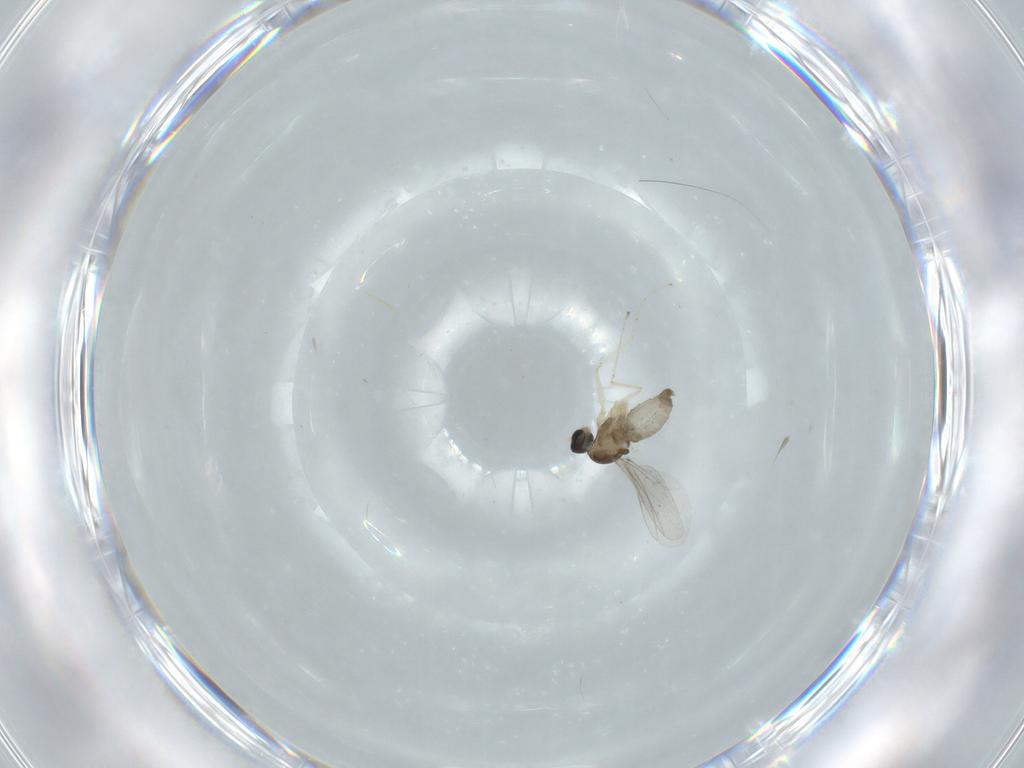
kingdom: Animalia
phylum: Arthropoda
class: Insecta
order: Diptera
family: Cecidomyiidae
